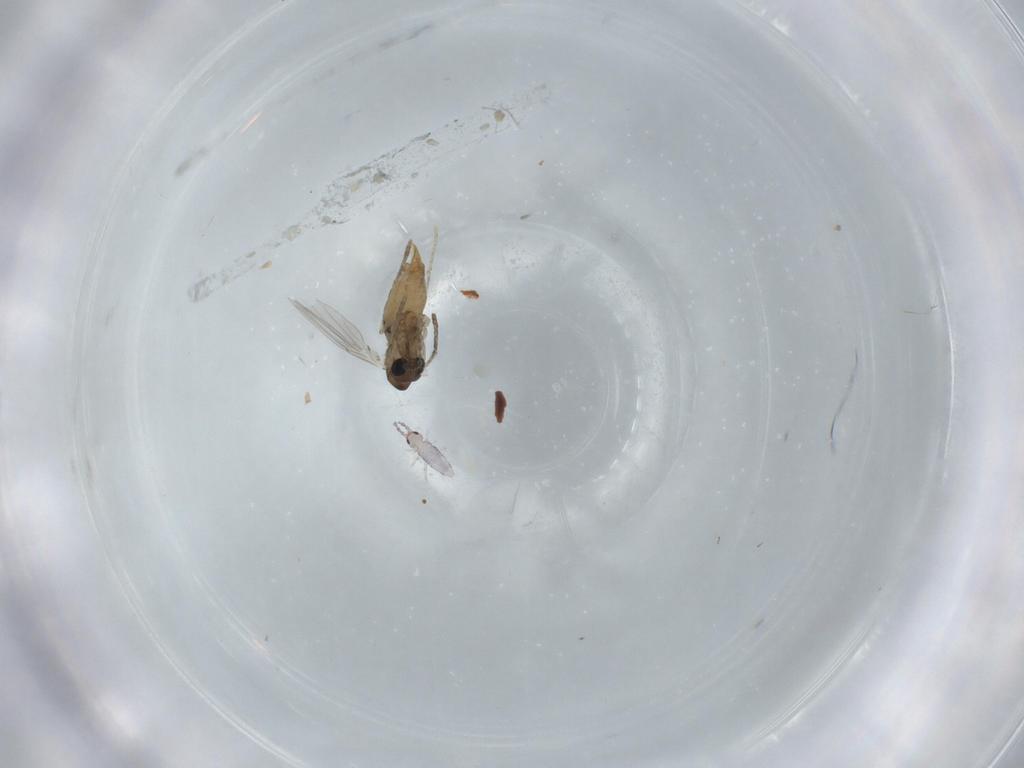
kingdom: Animalia
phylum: Arthropoda
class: Insecta
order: Diptera
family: Psychodidae
